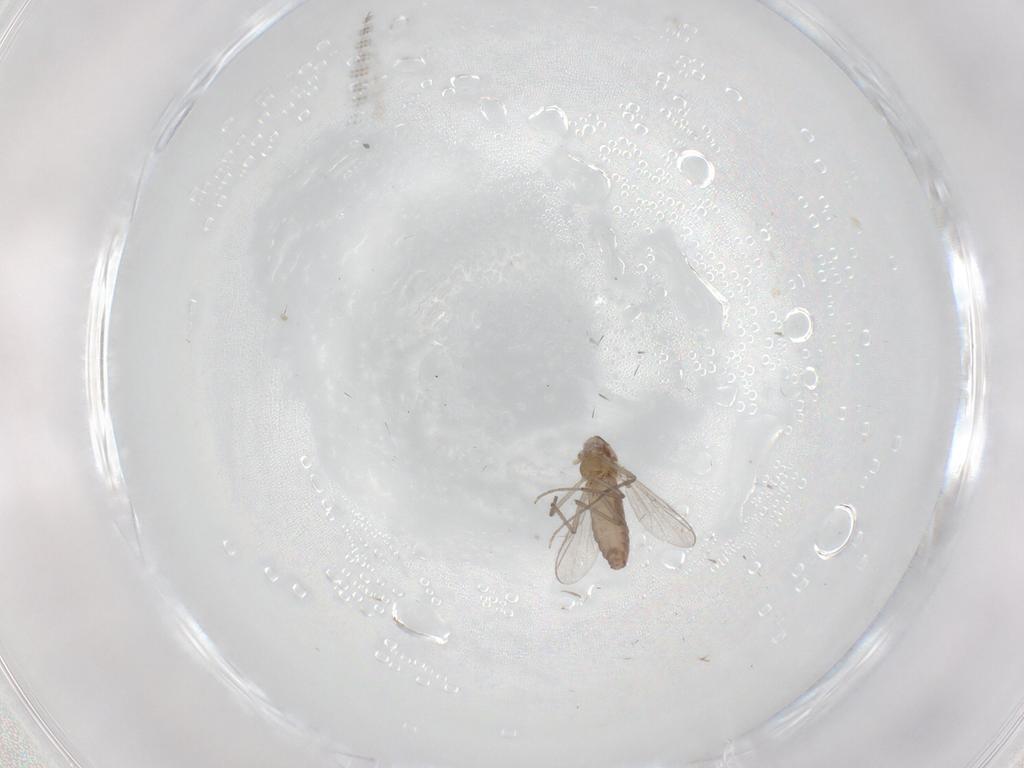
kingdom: Animalia
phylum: Arthropoda
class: Insecta
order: Diptera
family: Chironomidae
